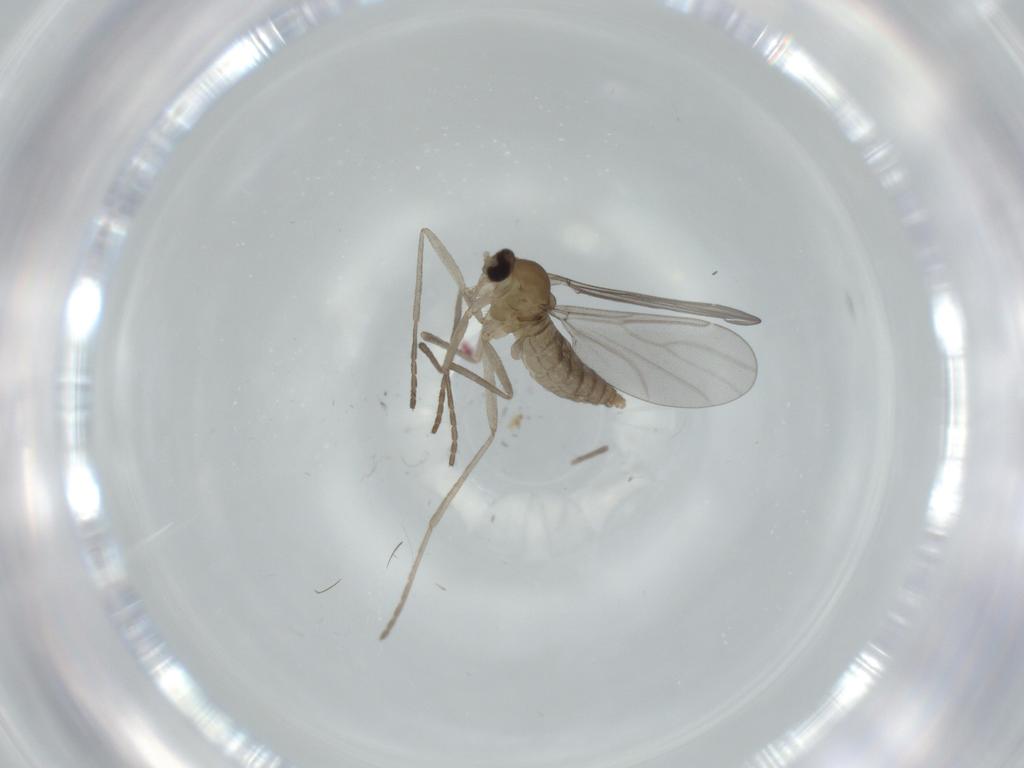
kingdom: Animalia
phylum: Arthropoda
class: Insecta
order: Diptera
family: Cecidomyiidae
